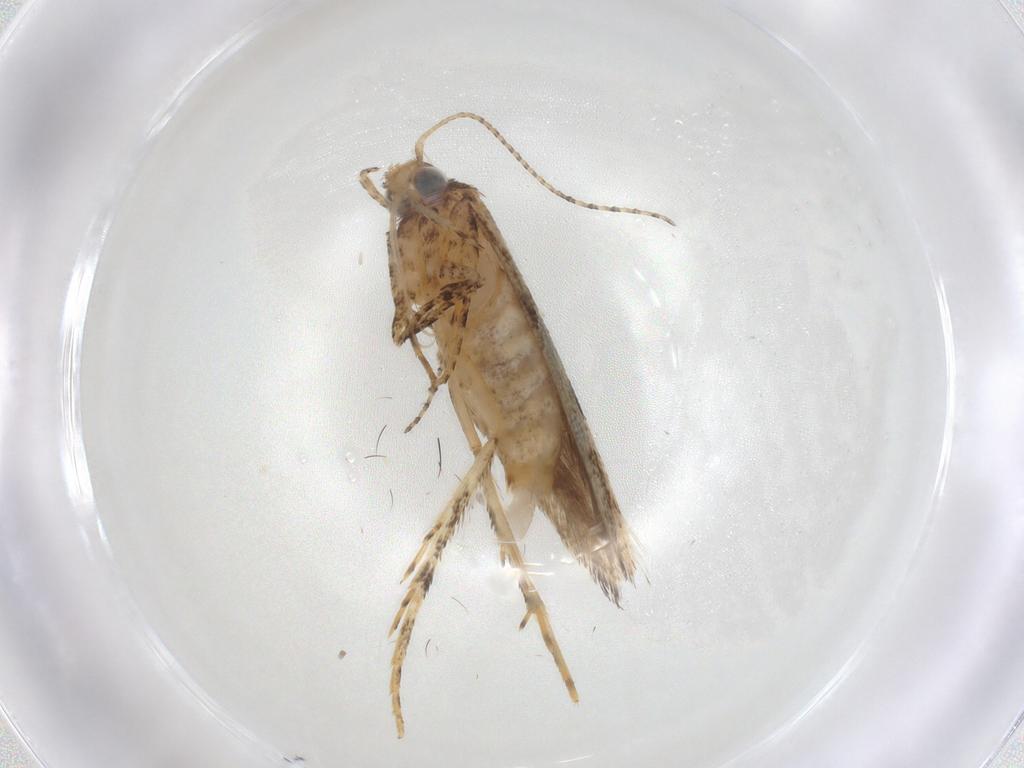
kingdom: Animalia
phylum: Arthropoda
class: Insecta
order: Lepidoptera
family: Gelechiidae
